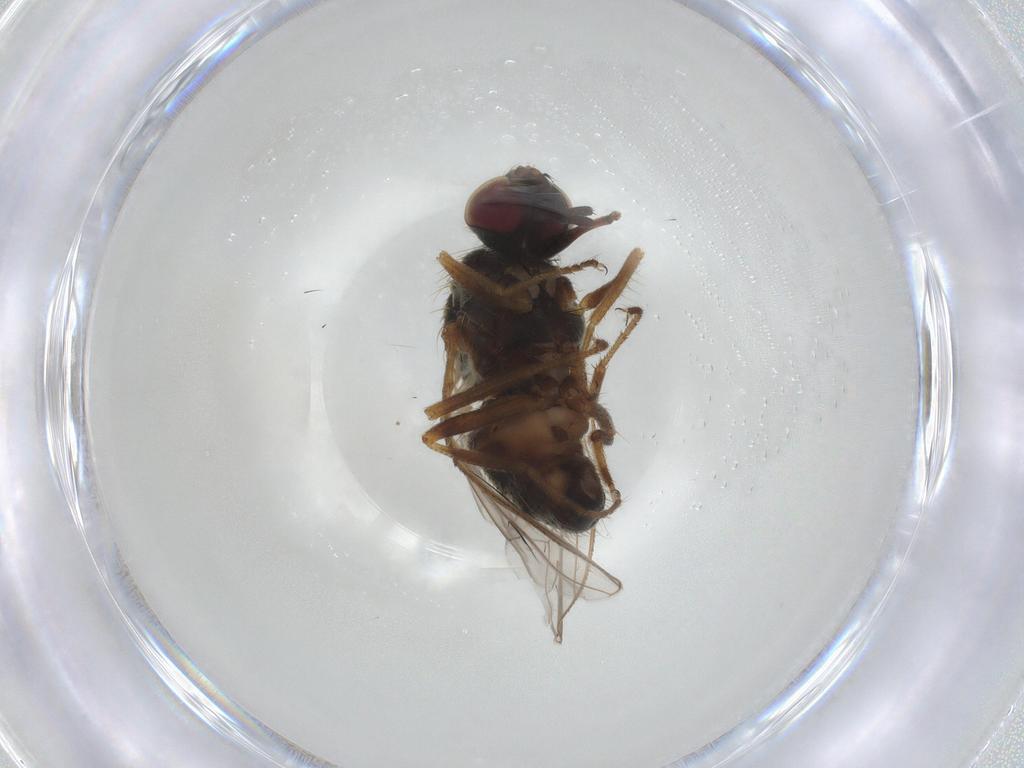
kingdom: Animalia
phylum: Arthropoda
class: Insecta
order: Diptera
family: Muscidae
